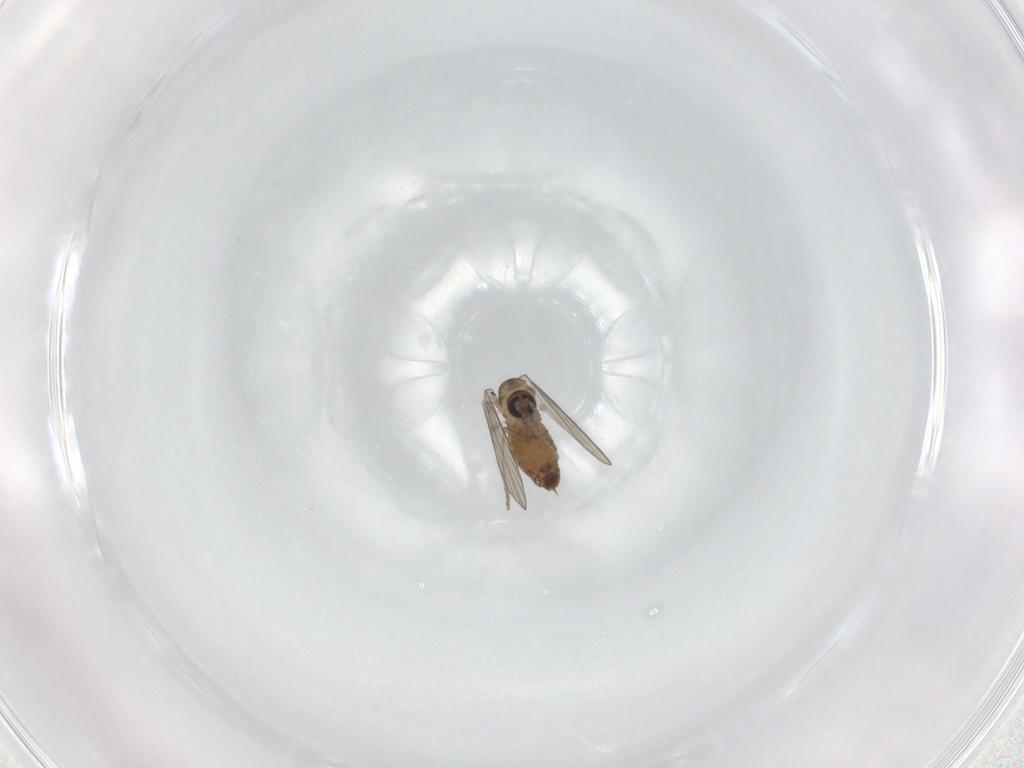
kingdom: Animalia
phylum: Arthropoda
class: Insecta
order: Diptera
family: Psychodidae
